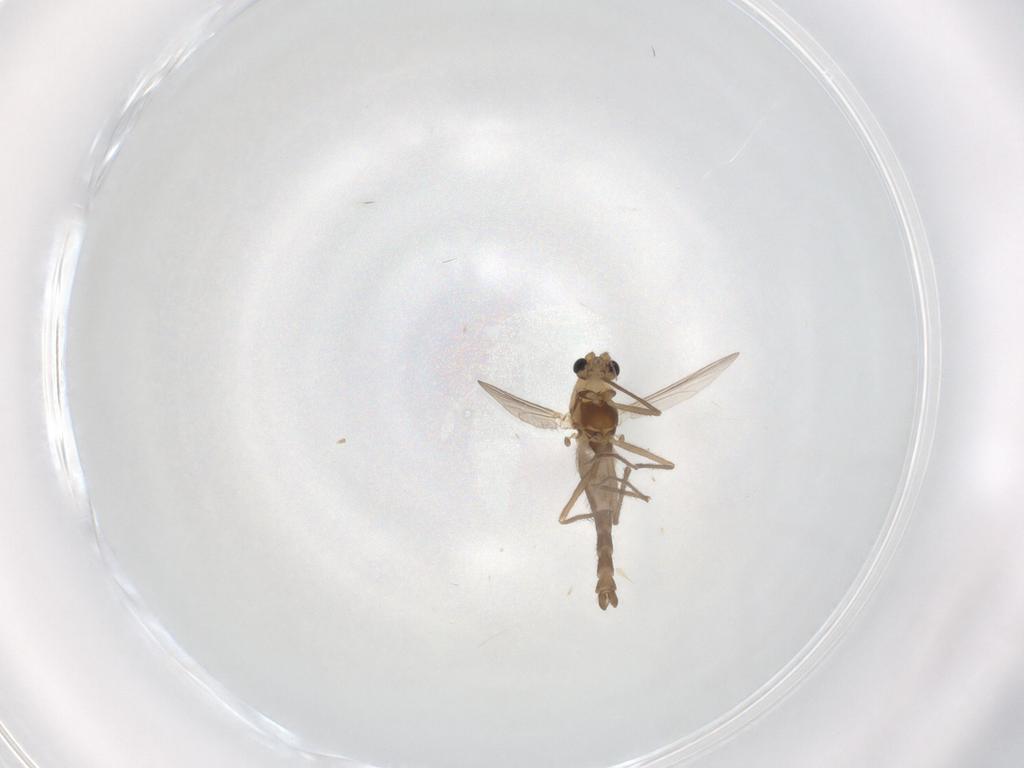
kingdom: Animalia
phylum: Arthropoda
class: Insecta
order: Diptera
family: Chironomidae
